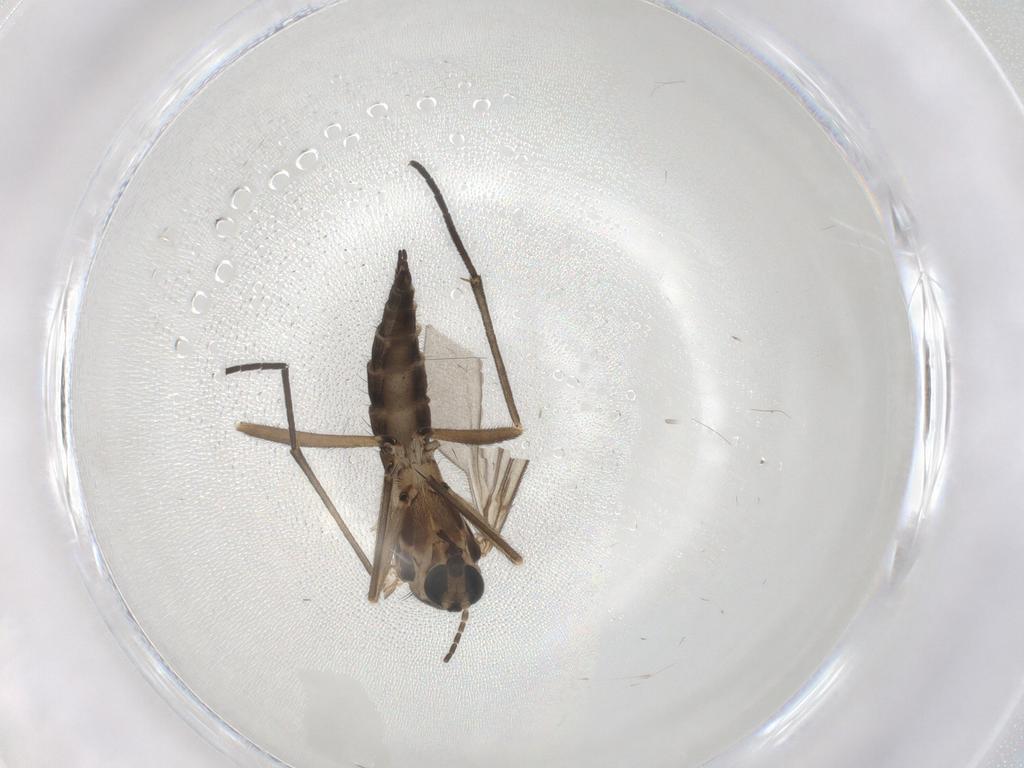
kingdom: Animalia
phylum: Arthropoda
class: Insecta
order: Diptera
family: Sciaridae
